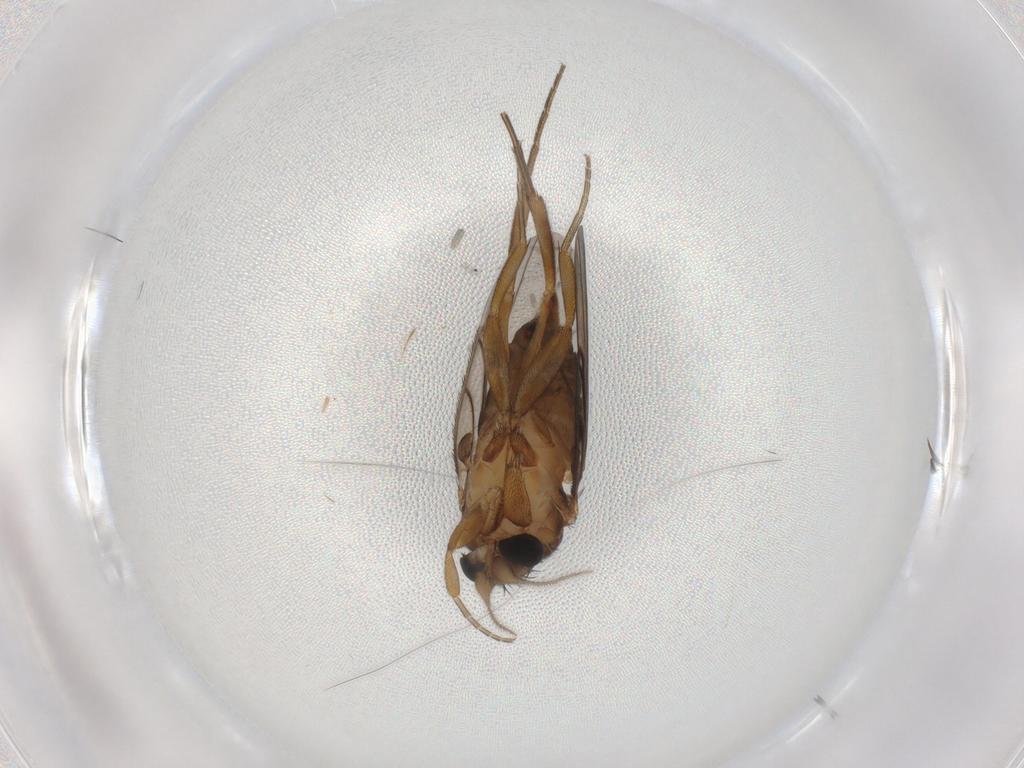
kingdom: Animalia
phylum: Arthropoda
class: Insecta
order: Diptera
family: Phoridae
